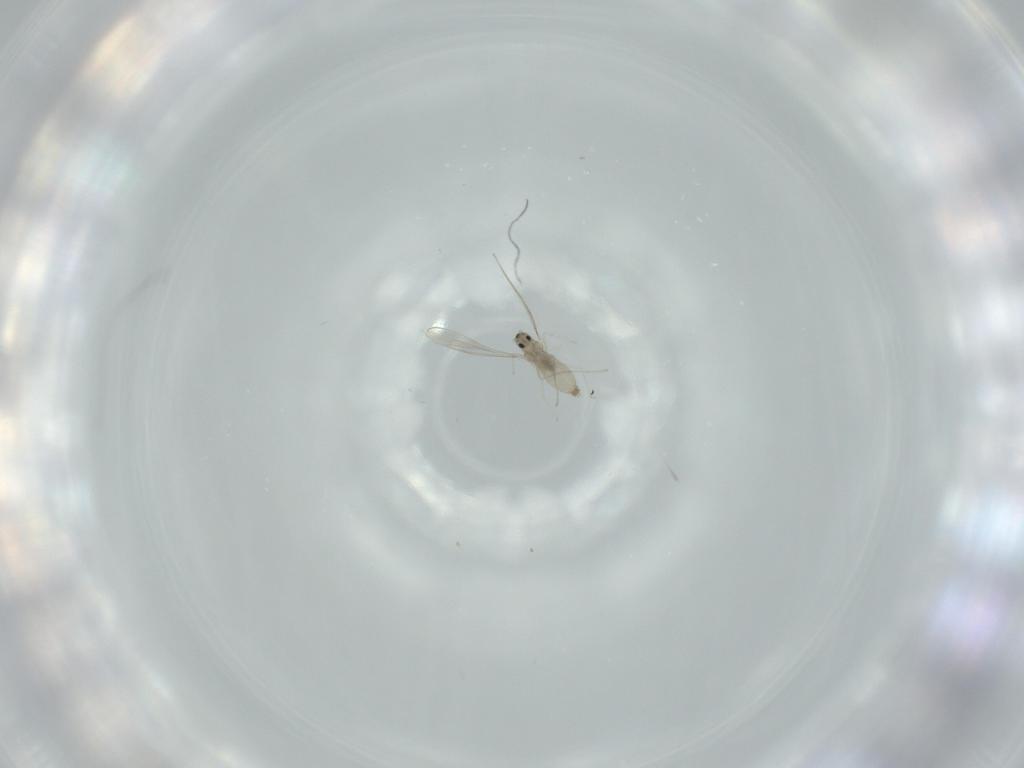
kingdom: Animalia
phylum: Arthropoda
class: Insecta
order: Diptera
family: Cecidomyiidae
